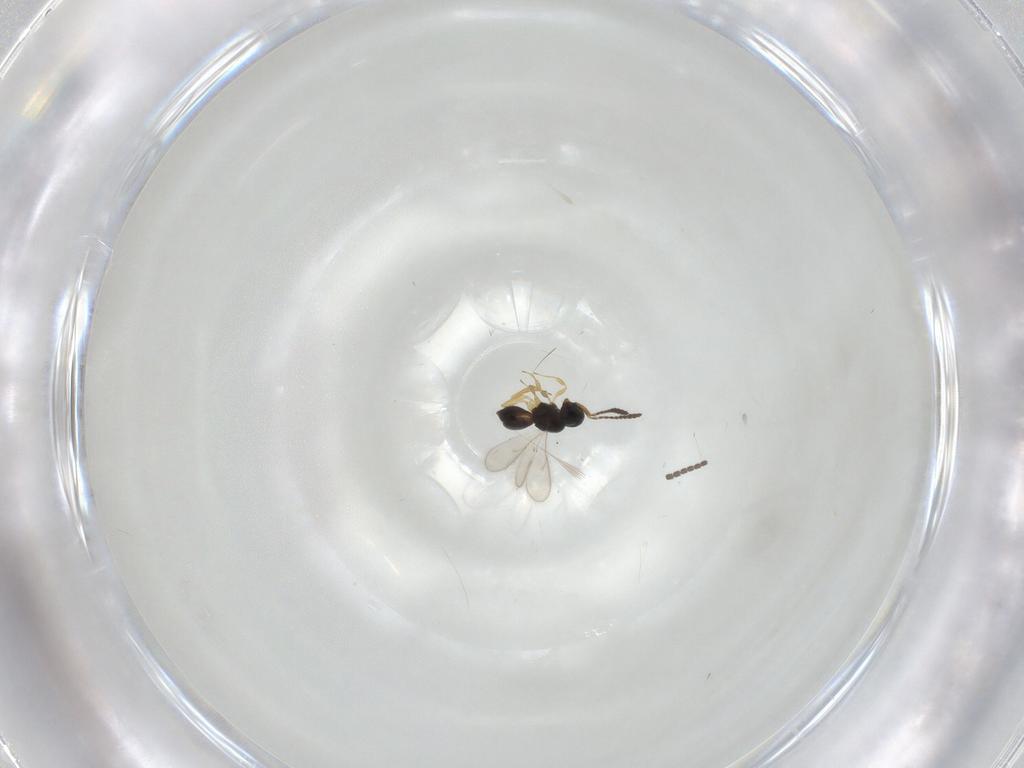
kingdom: Animalia
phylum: Arthropoda
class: Insecta
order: Hymenoptera
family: Scelionidae
